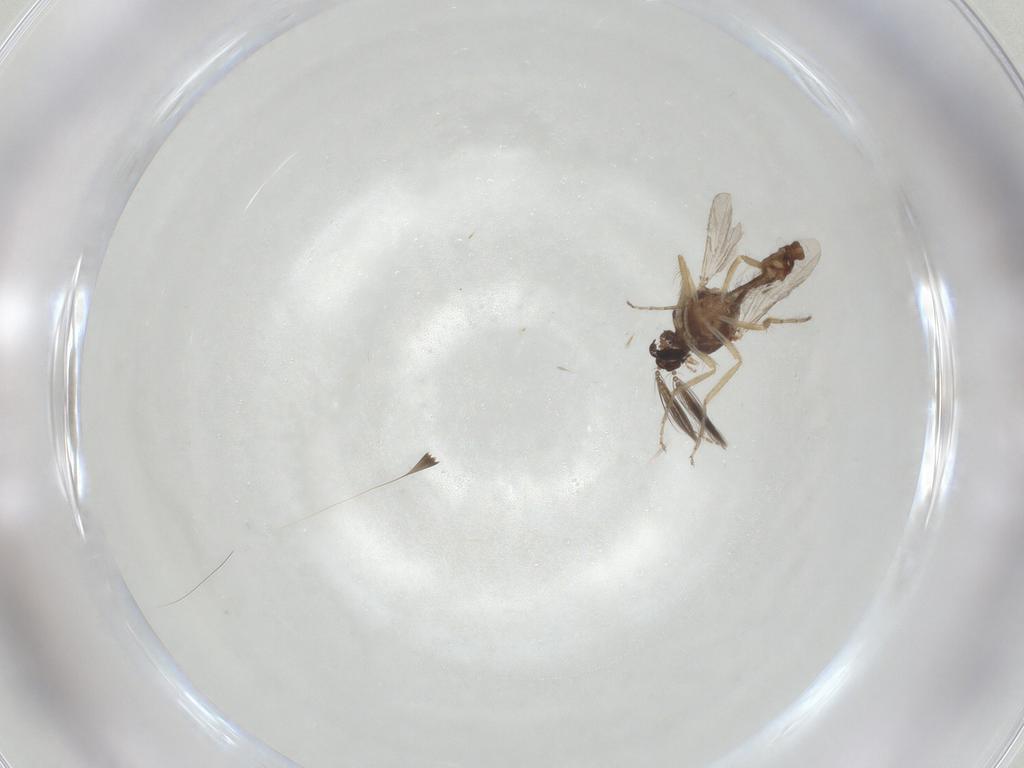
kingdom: Animalia
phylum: Arthropoda
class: Insecta
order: Diptera
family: Ceratopogonidae
